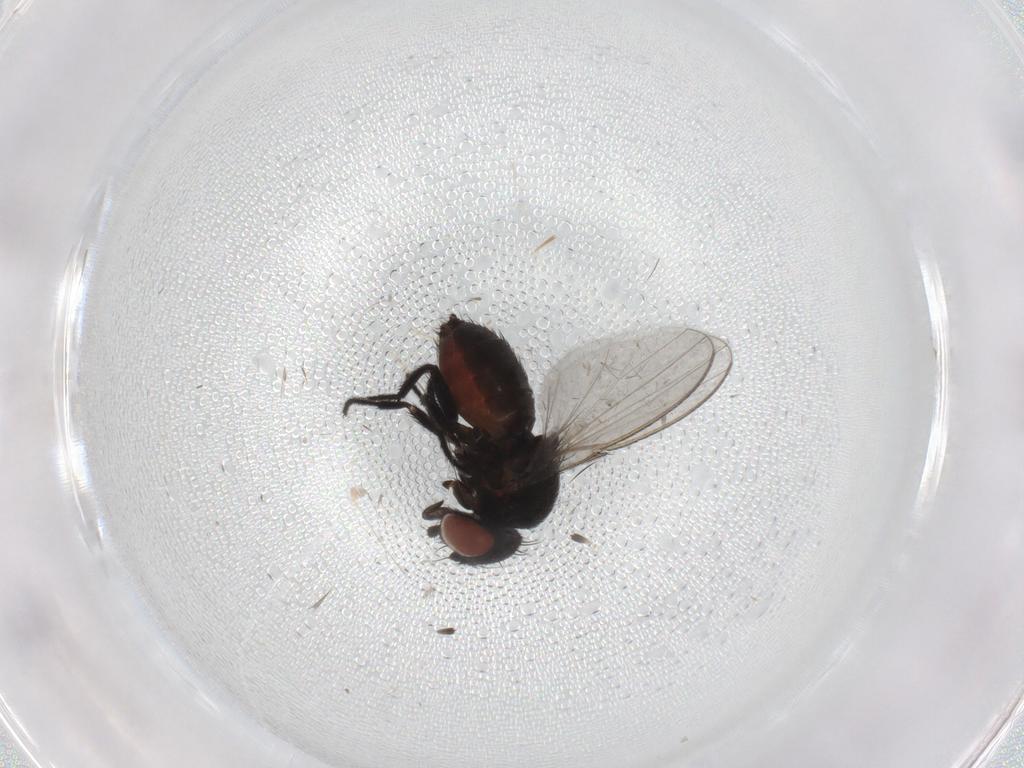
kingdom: Animalia
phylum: Arthropoda
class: Insecta
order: Diptera
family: Milichiidae
